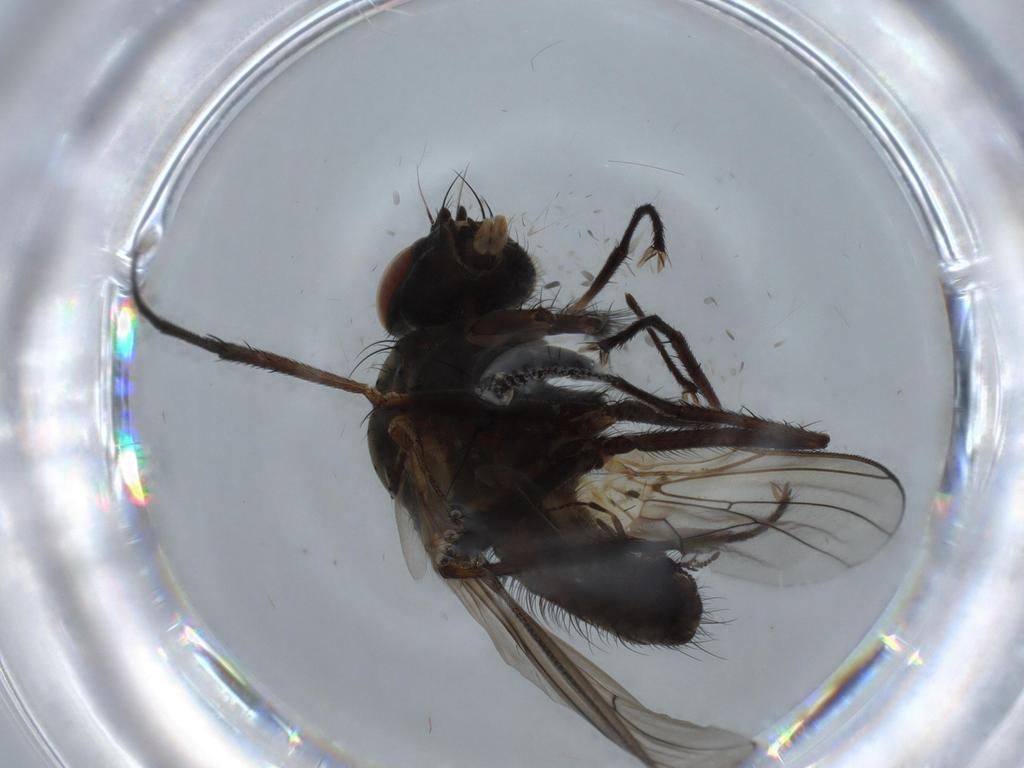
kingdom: Animalia
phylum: Arthropoda
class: Insecta
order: Diptera
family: Anthomyiidae
